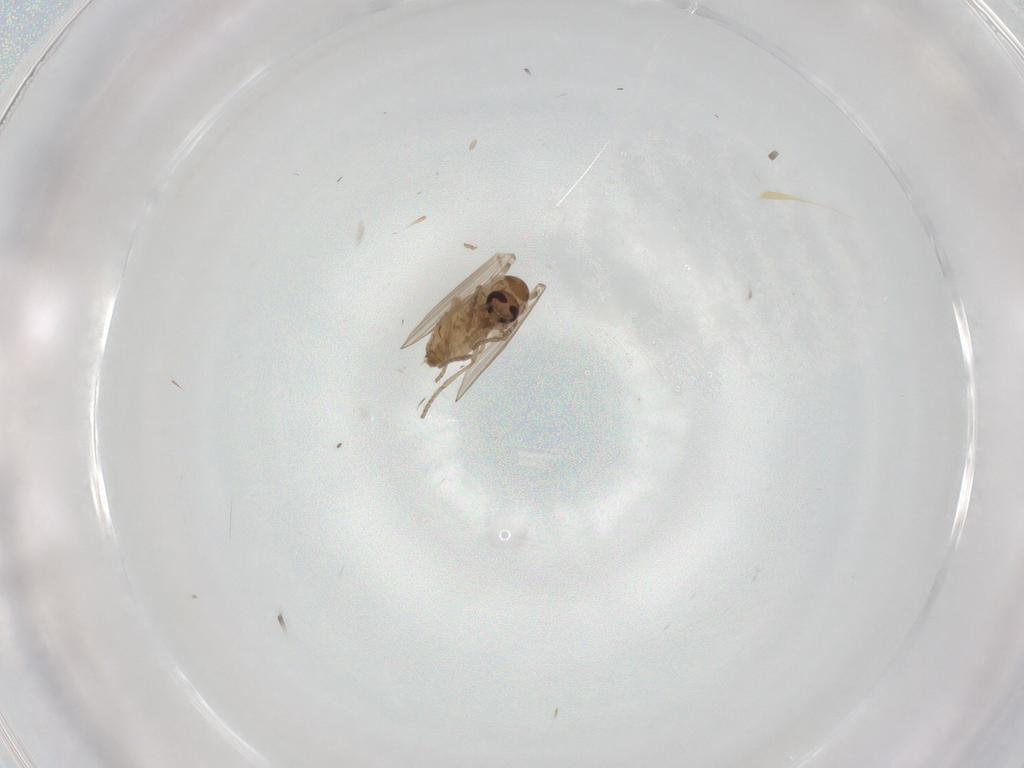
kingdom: Animalia
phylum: Arthropoda
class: Insecta
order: Diptera
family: Psychodidae
